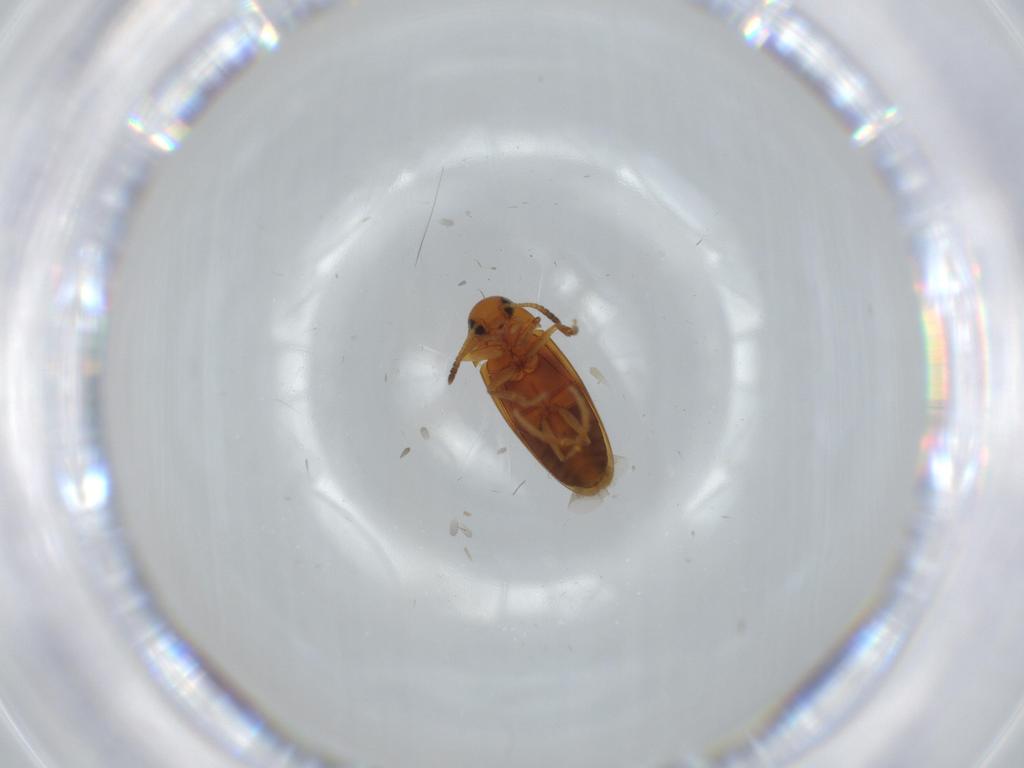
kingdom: Animalia
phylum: Arthropoda
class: Insecta
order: Coleoptera
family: Scraptiidae
